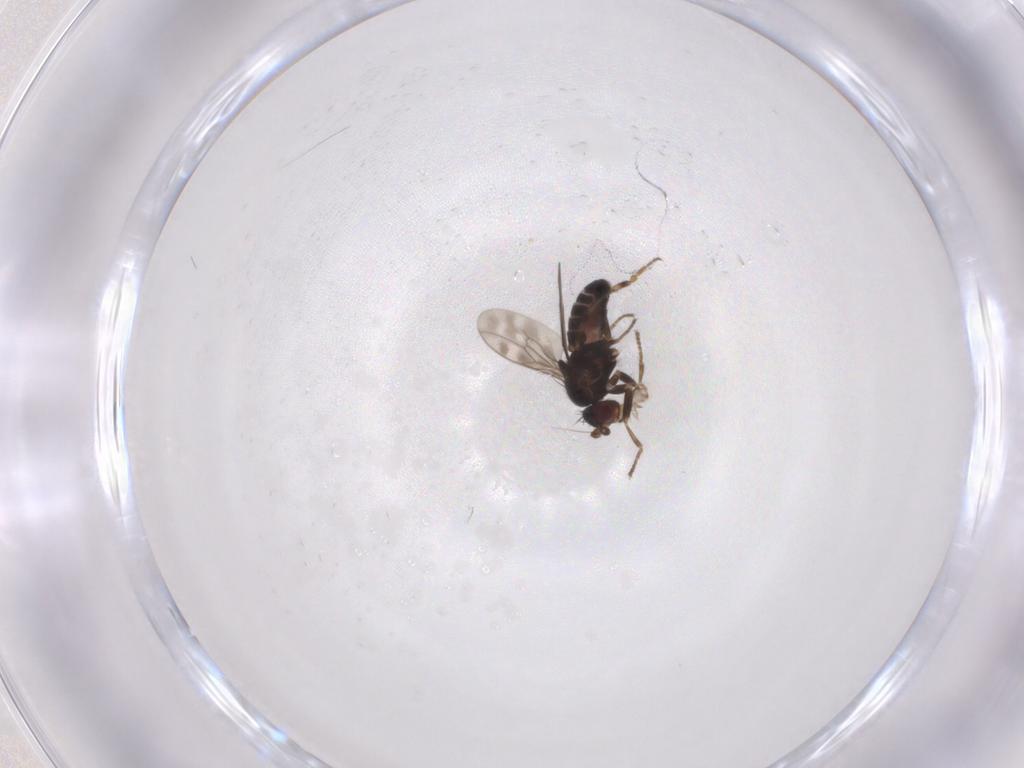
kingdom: Animalia
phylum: Arthropoda
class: Insecta
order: Diptera
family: Sphaeroceridae
